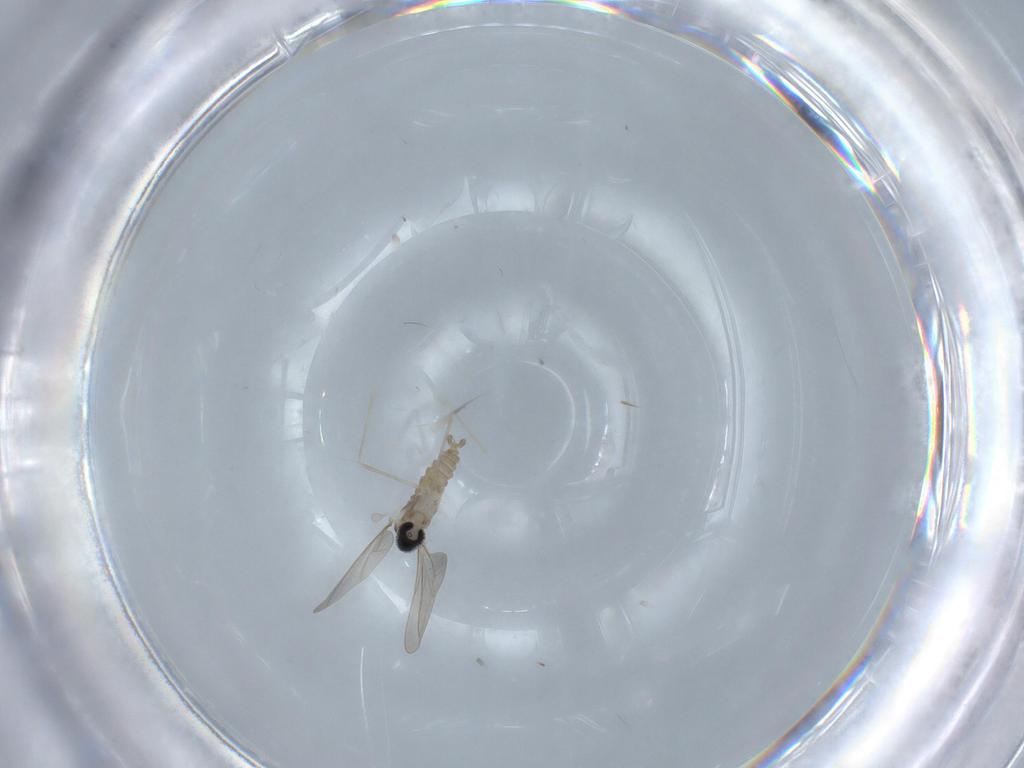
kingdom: Animalia
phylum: Arthropoda
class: Insecta
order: Diptera
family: Cecidomyiidae
